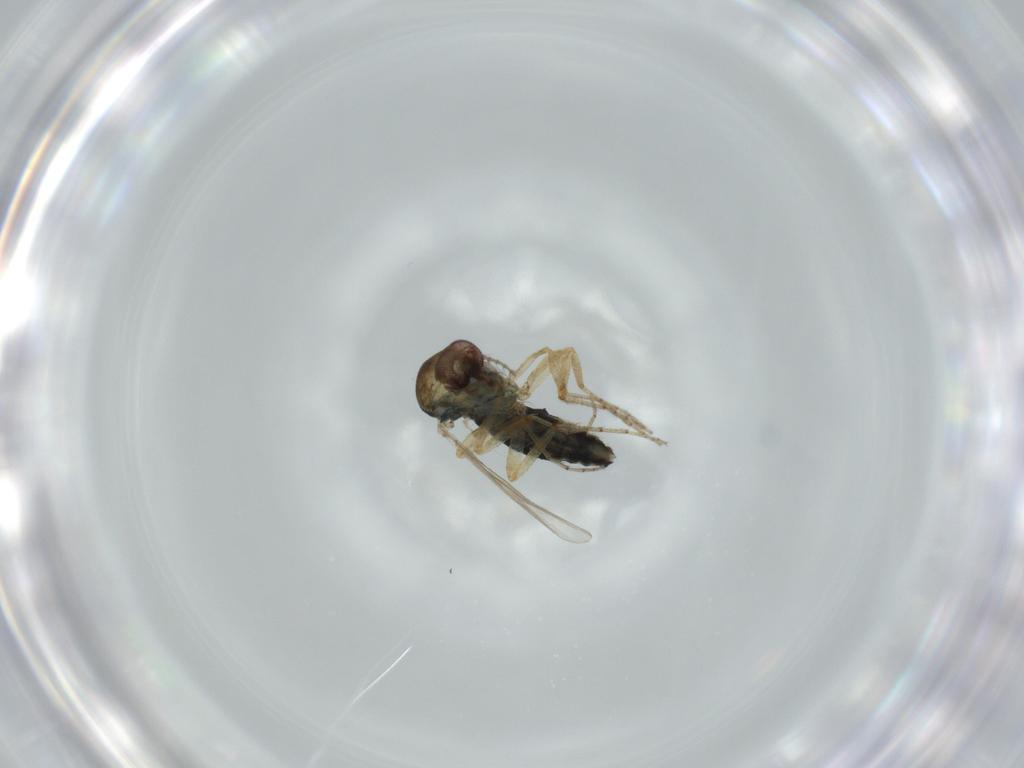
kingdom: Animalia
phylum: Arthropoda
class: Insecta
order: Diptera
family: Ceratopogonidae
